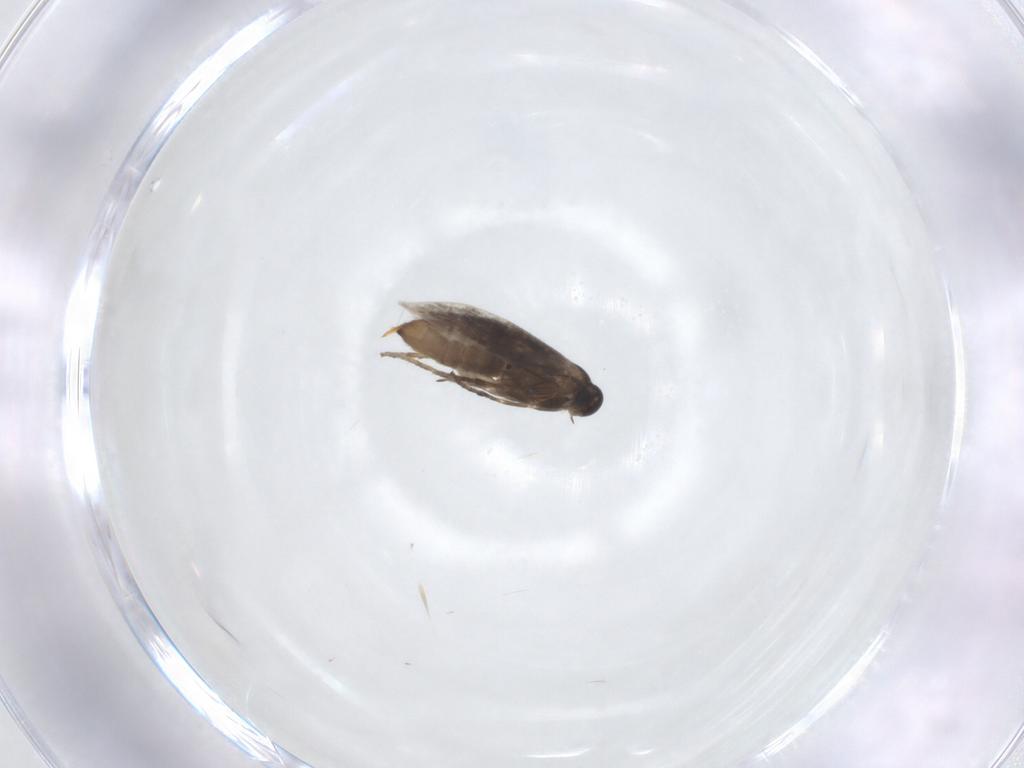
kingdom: Animalia
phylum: Arthropoda
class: Insecta
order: Lepidoptera
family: Heliozelidae
